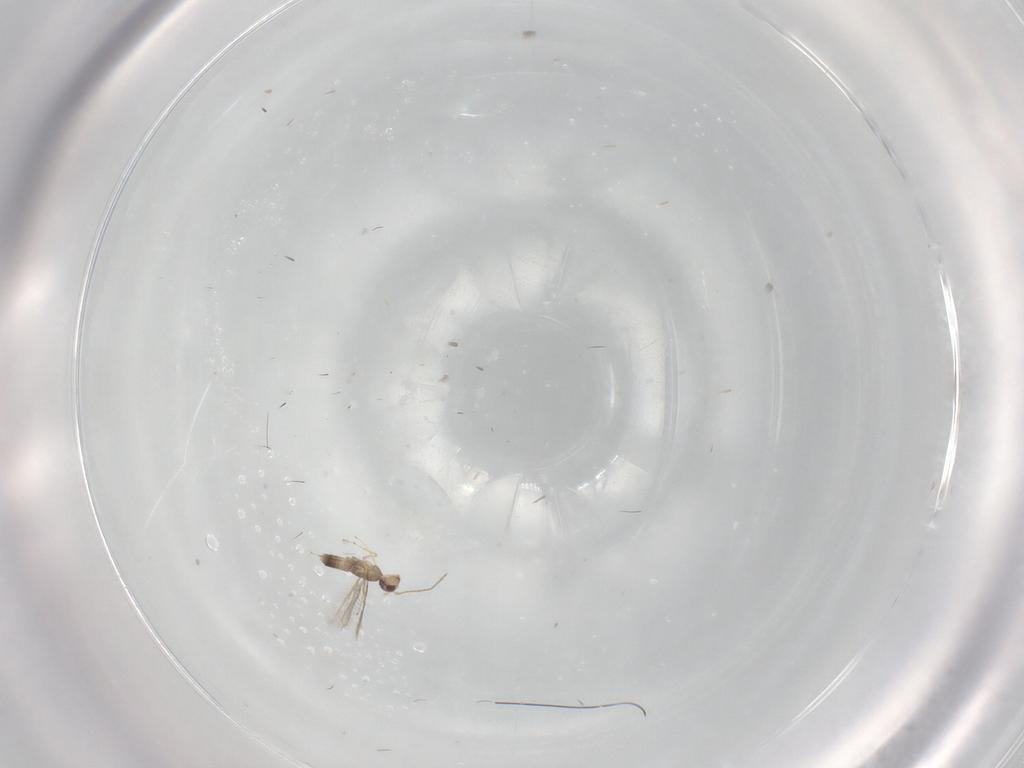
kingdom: Animalia
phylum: Arthropoda
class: Insecta
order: Hymenoptera
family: Mymaridae
